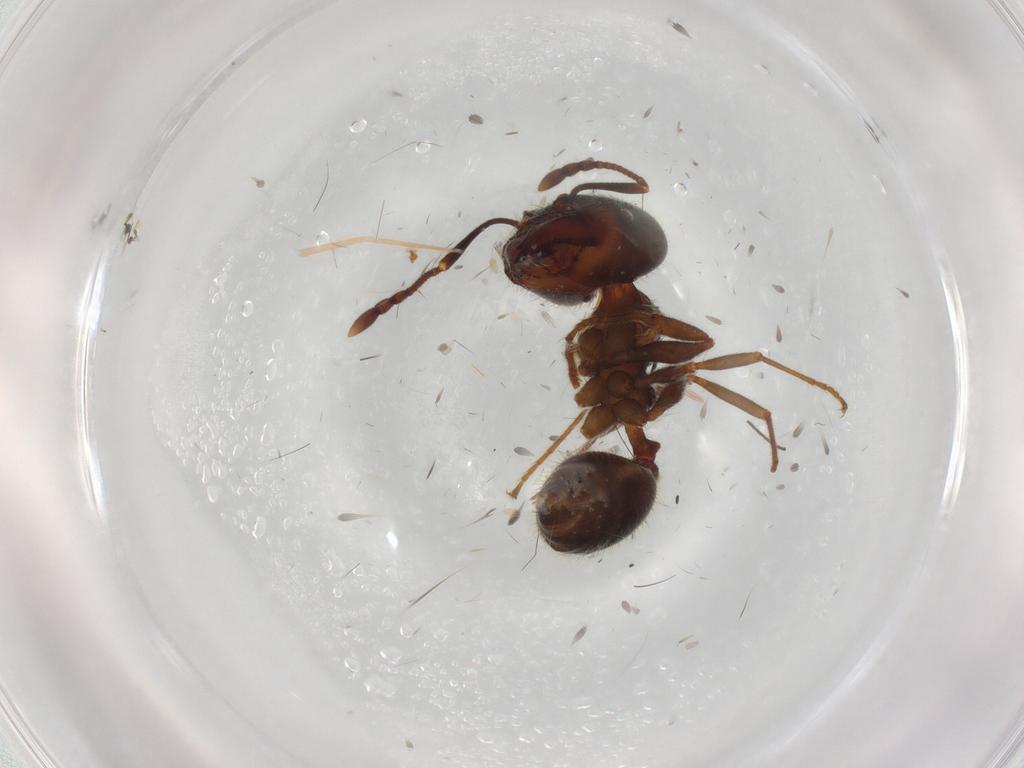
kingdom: Animalia
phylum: Arthropoda
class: Insecta
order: Hymenoptera
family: Formicidae
